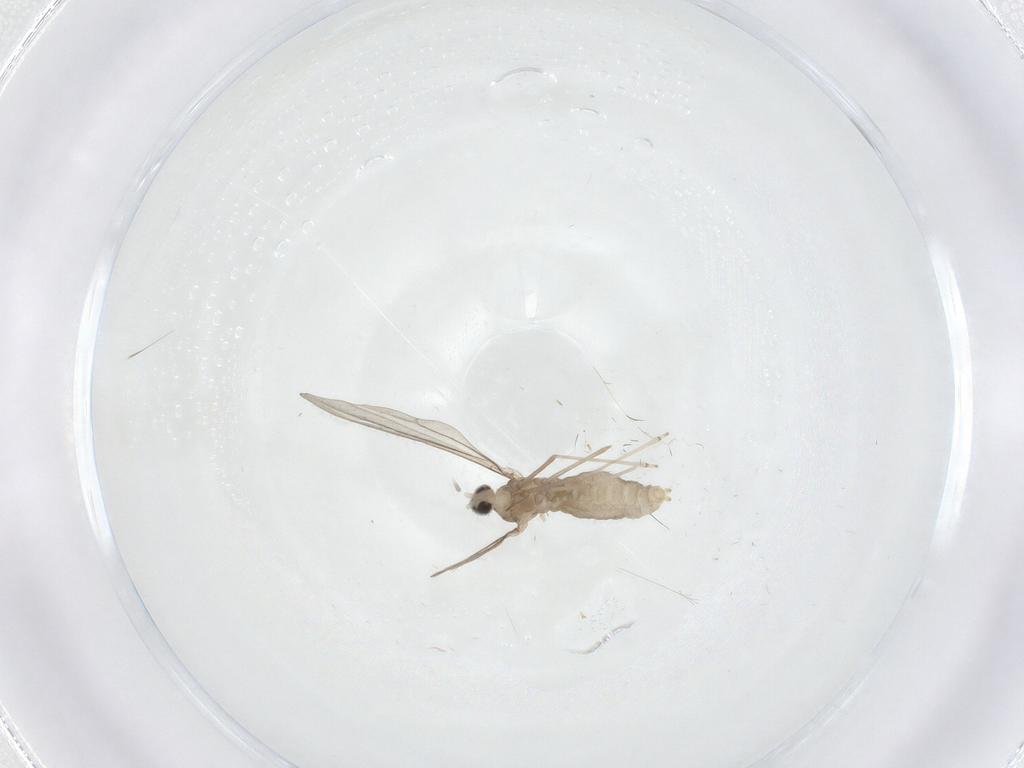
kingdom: Animalia
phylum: Arthropoda
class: Insecta
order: Diptera
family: Cecidomyiidae
